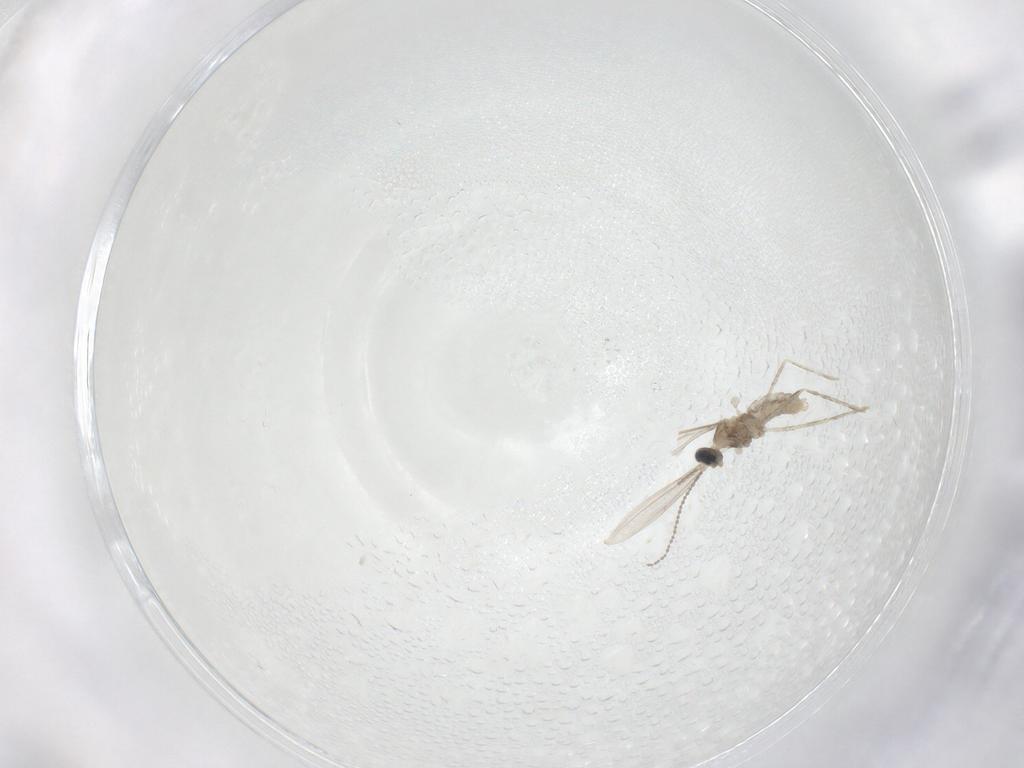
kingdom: Animalia
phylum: Arthropoda
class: Insecta
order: Diptera
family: Cecidomyiidae
